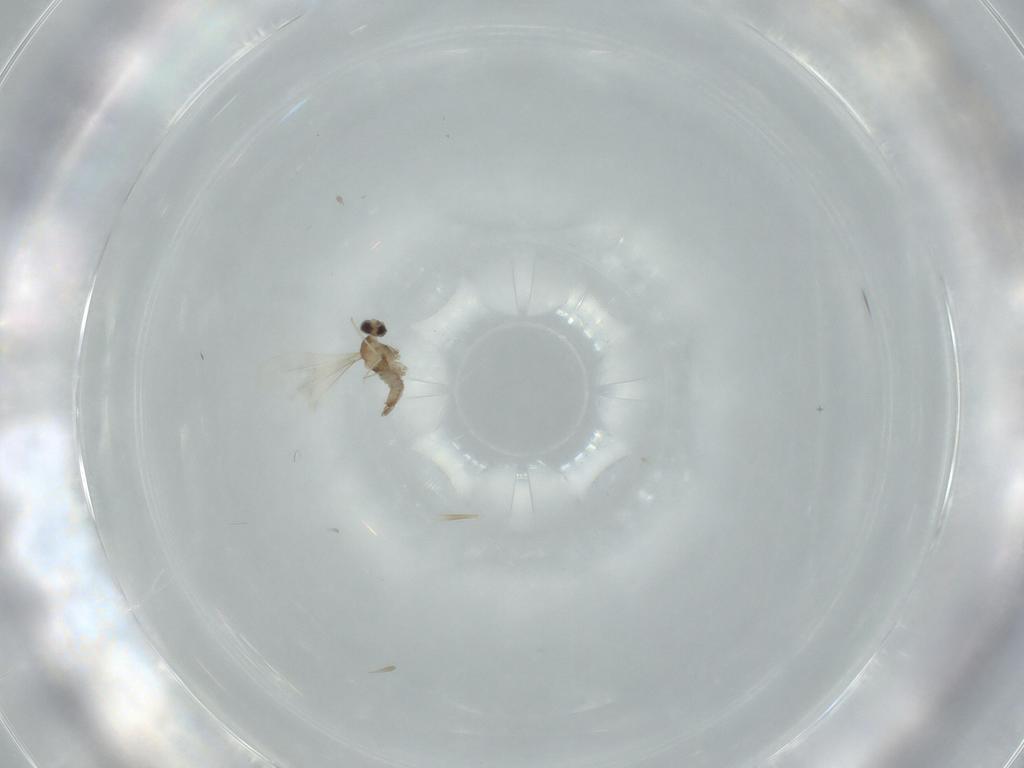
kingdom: Animalia
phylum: Arthropoda
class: Insecta
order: Diptera
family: Cecidomyiidae
